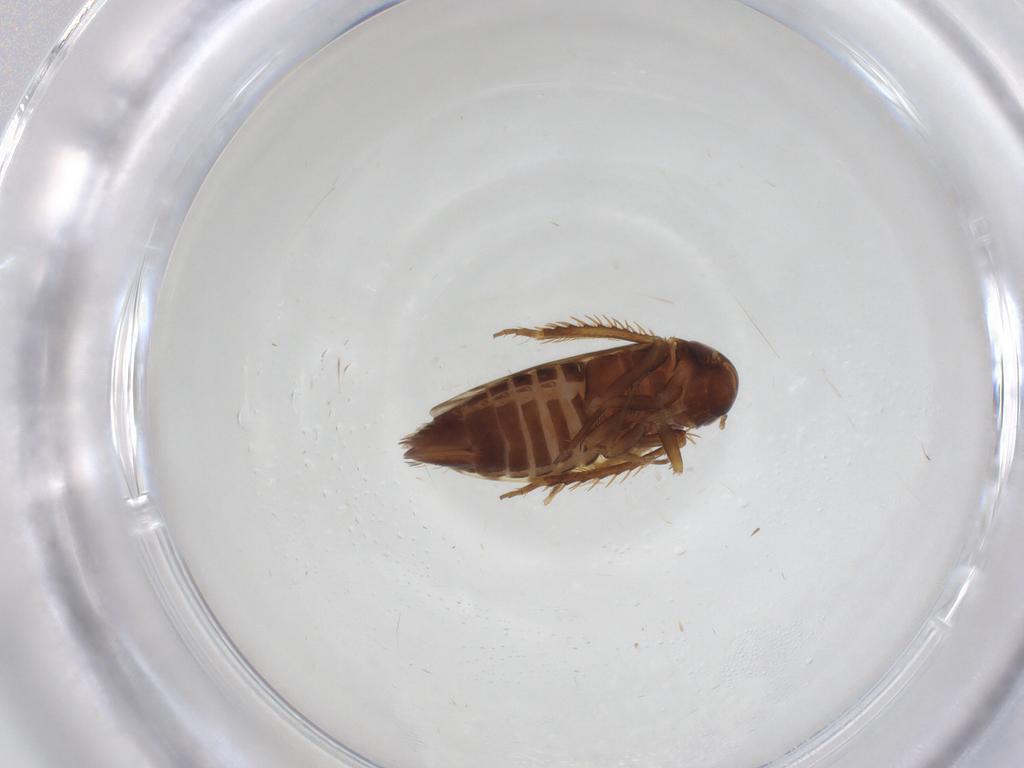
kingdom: Animalia
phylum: Arthropoda
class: Insecta
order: Hemiptera
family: Cicadellidae
